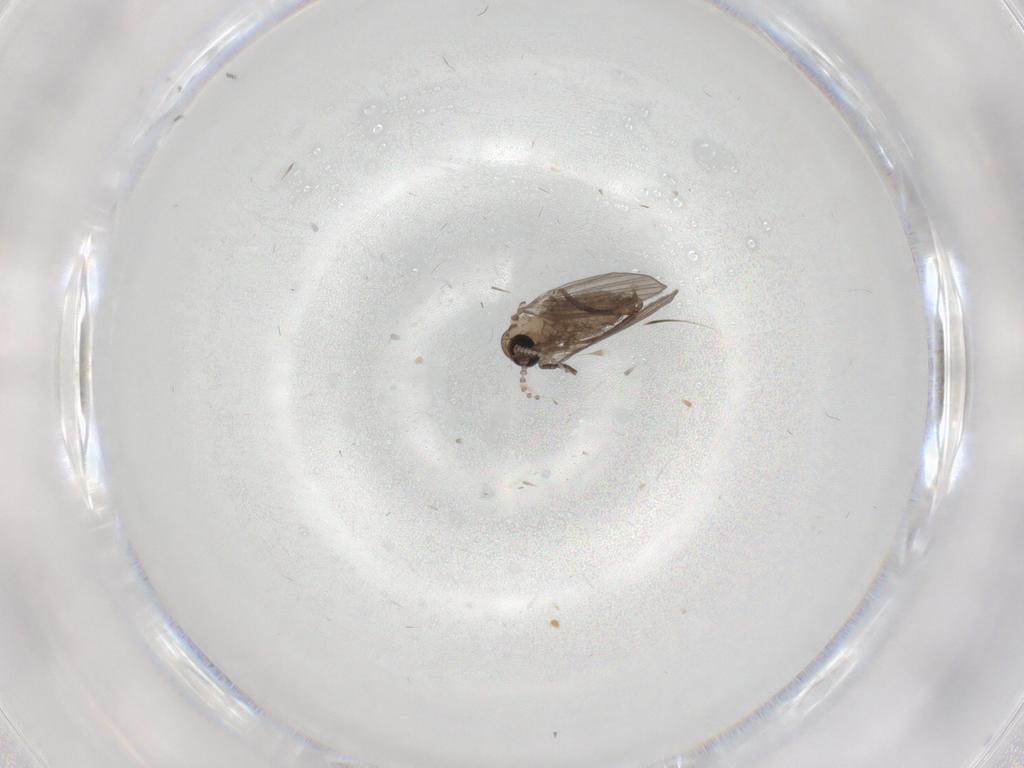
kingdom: Animalia
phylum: Arthropoda
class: Insecta
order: Diptera
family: Psychodidae
